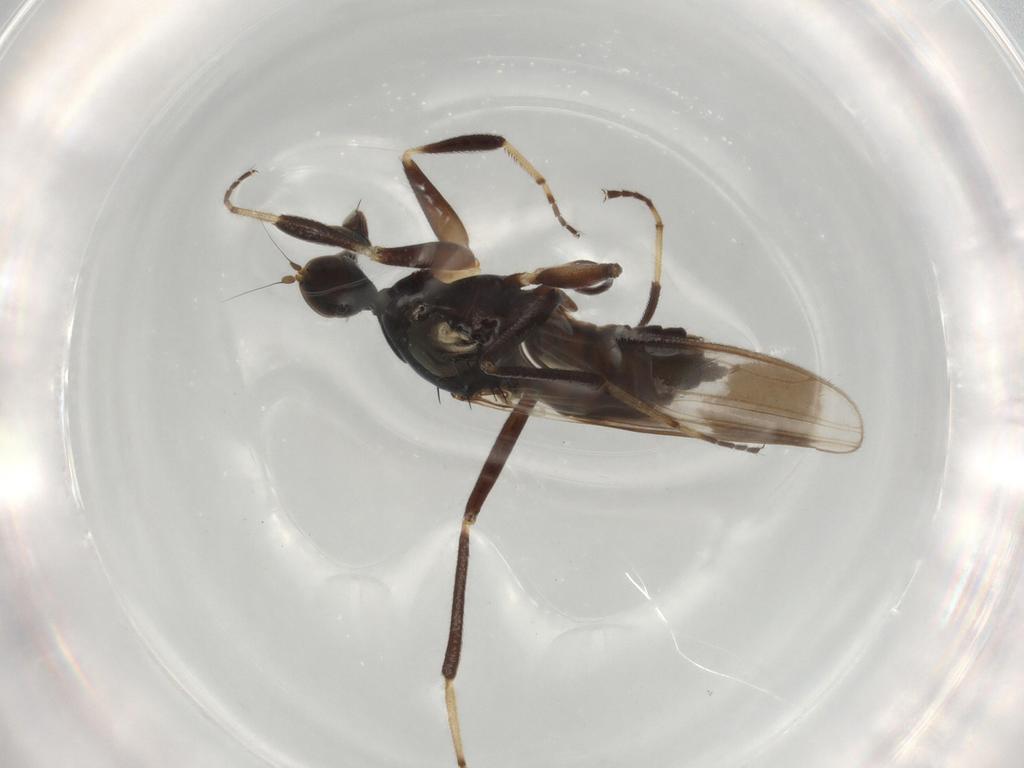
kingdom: Animalia
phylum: Arthropoda
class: Insecta
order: Diptera
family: Hybotidae
